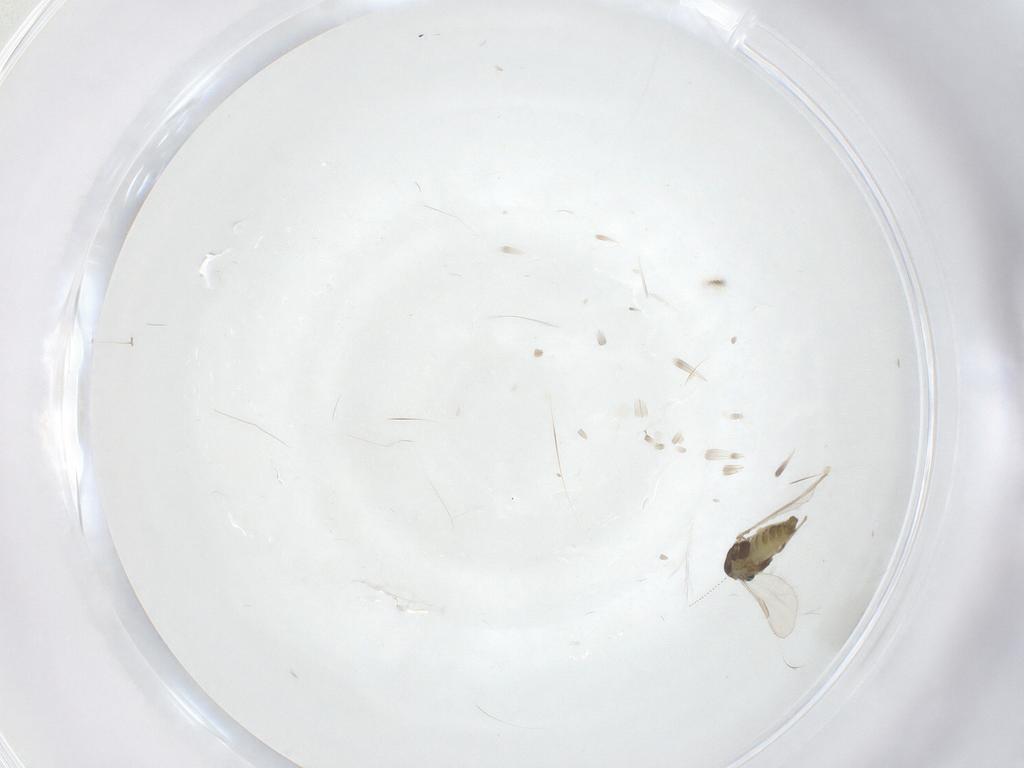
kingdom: Animalia
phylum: Arthropoda
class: Insecta
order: Diptera
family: Chironomidae
